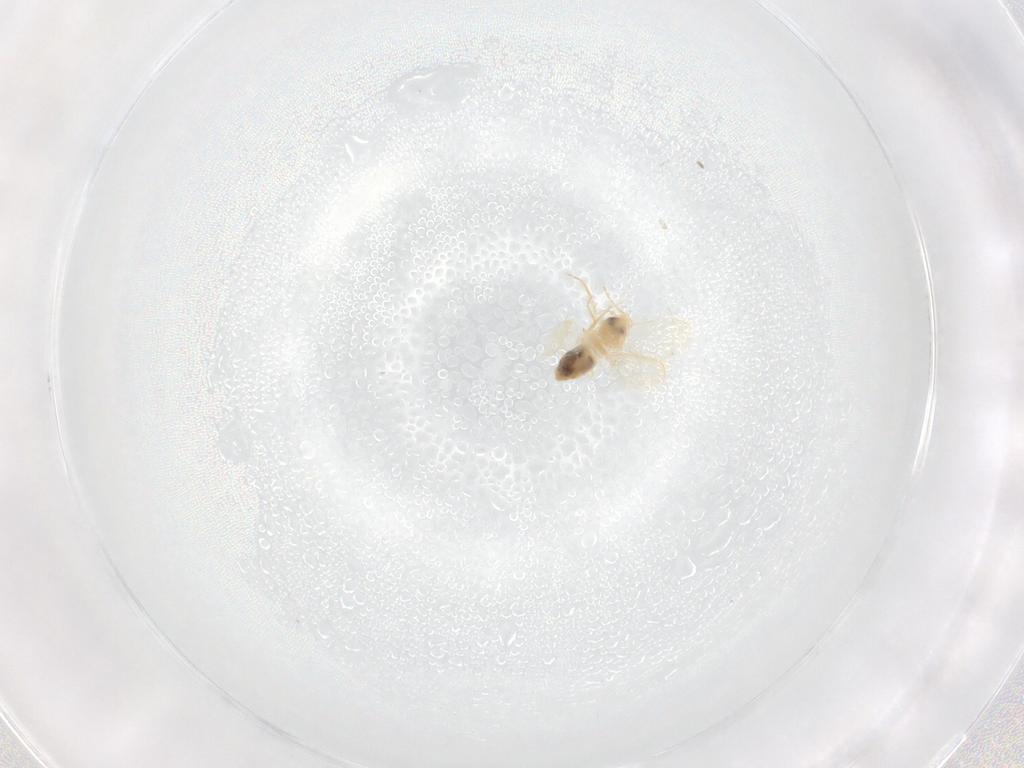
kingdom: Animalia
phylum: Arthropoda
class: Insecta
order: Hemiptera
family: Aleyrodidae
